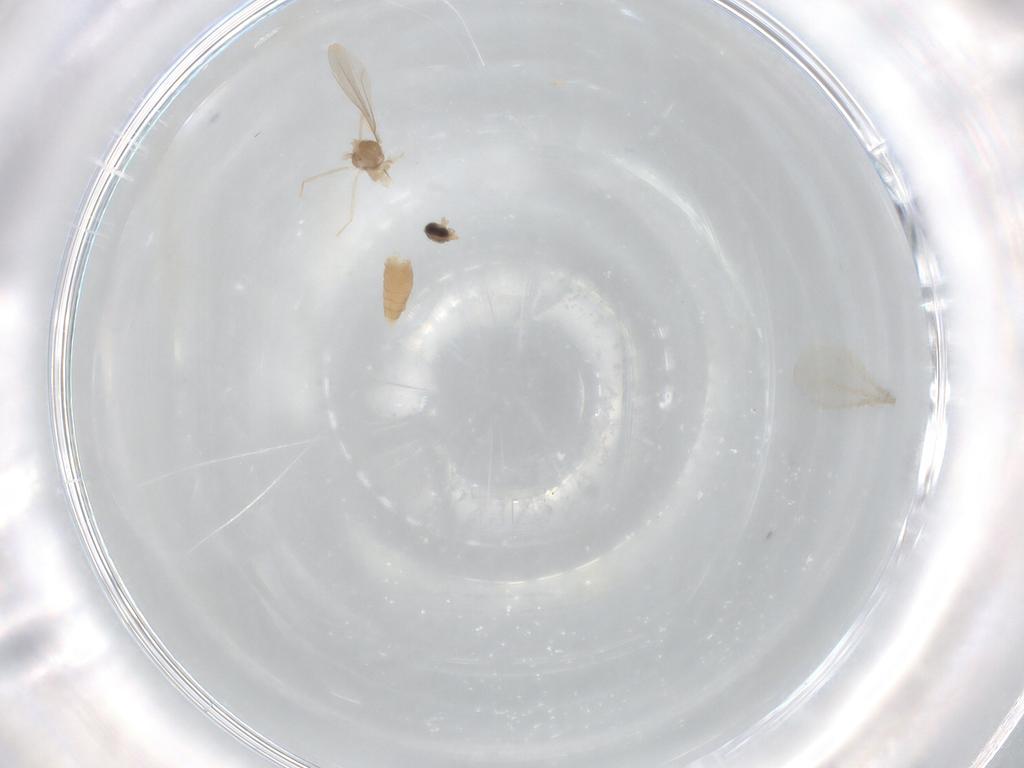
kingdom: Animalia
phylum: Arthropoda
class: Insecta
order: Diptera
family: Cecidomyiidae
